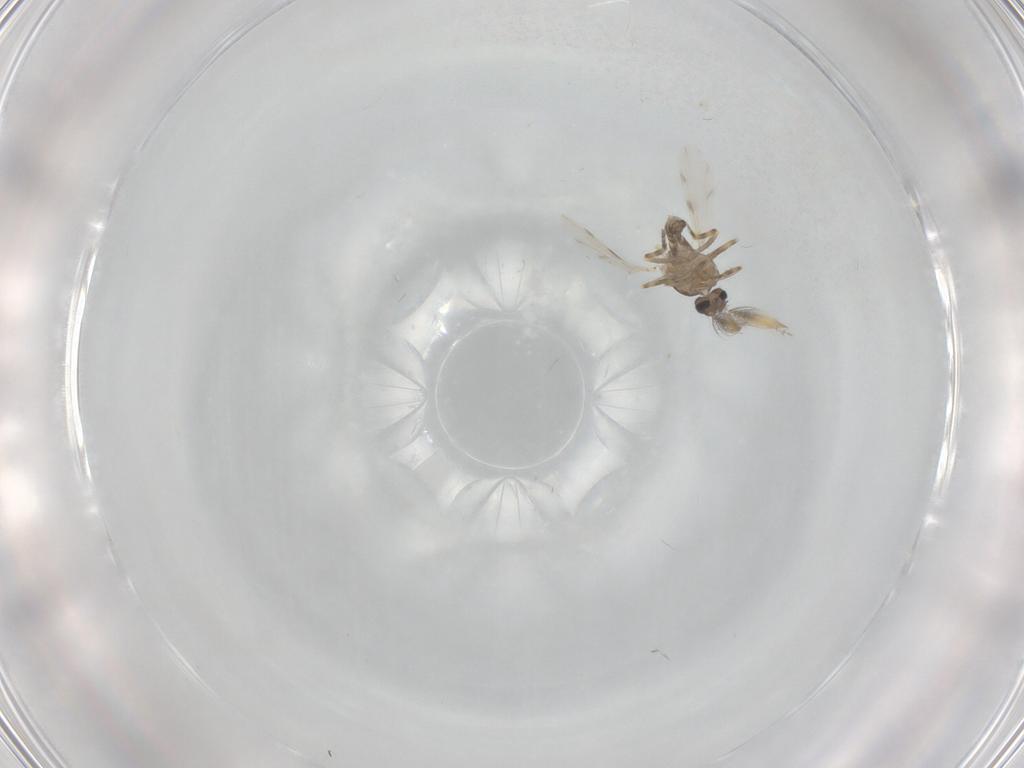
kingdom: Animalia
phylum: Arthropoda
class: Insecta
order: Diptera
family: Ceratopogonidae
